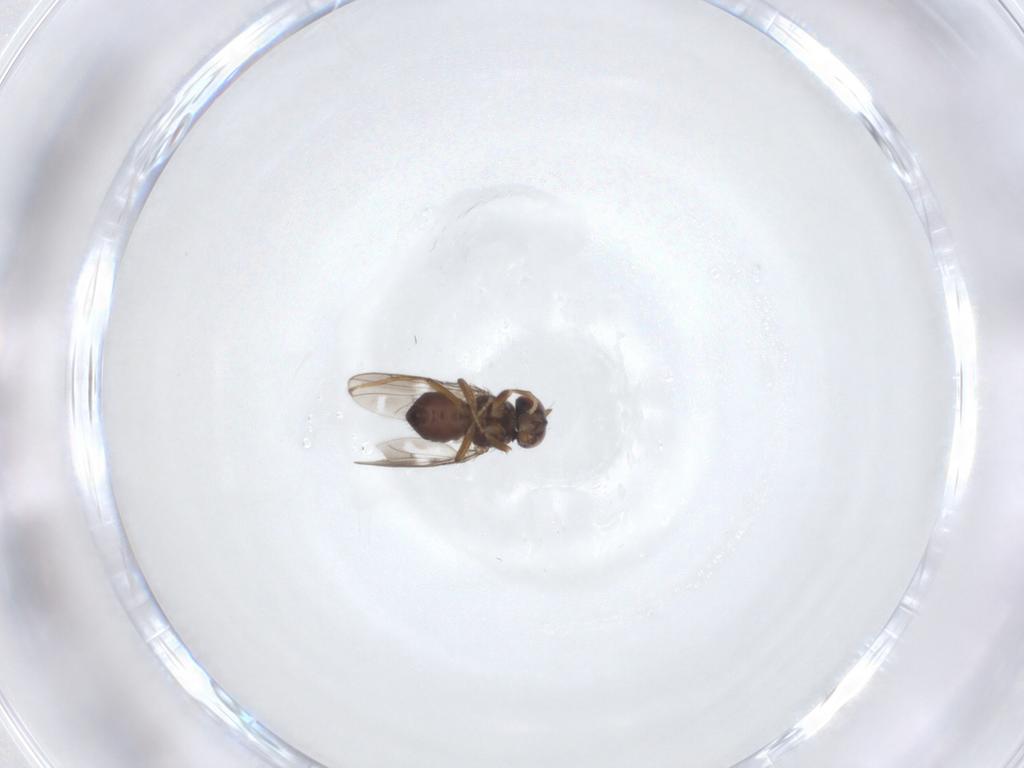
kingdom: Animalia
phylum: Arthropoda
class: Insecta
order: Diptera
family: Ephydridae
